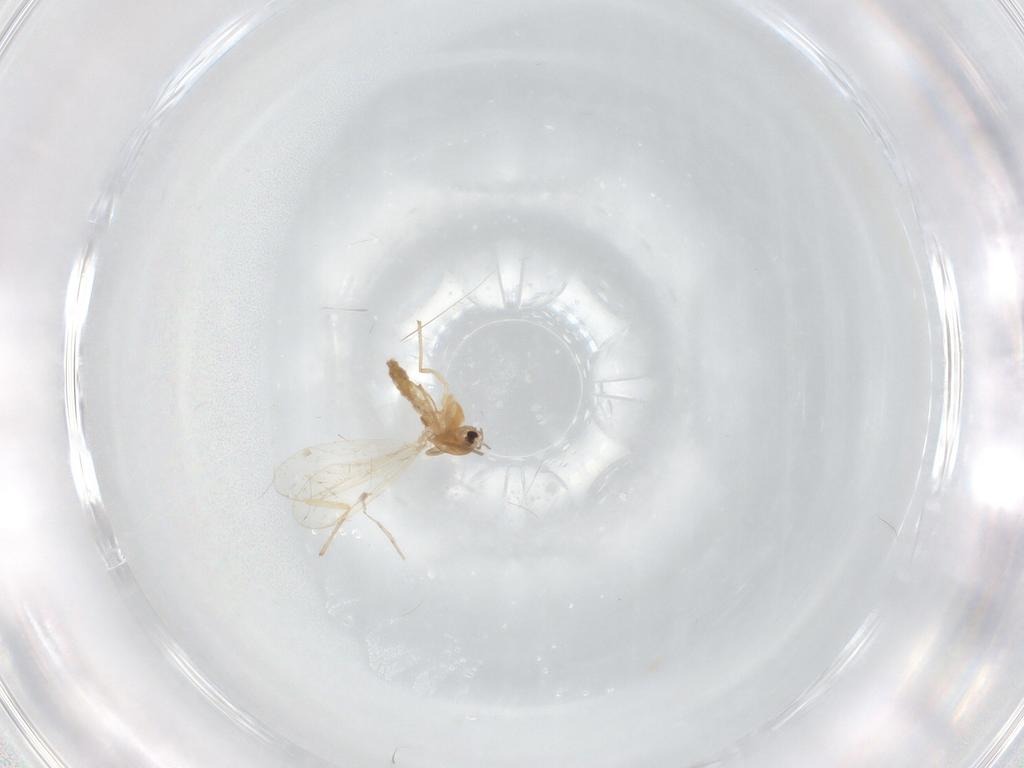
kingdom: Animalia
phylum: Arthropoda
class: Insecta
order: Diptera
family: Chironomidae
